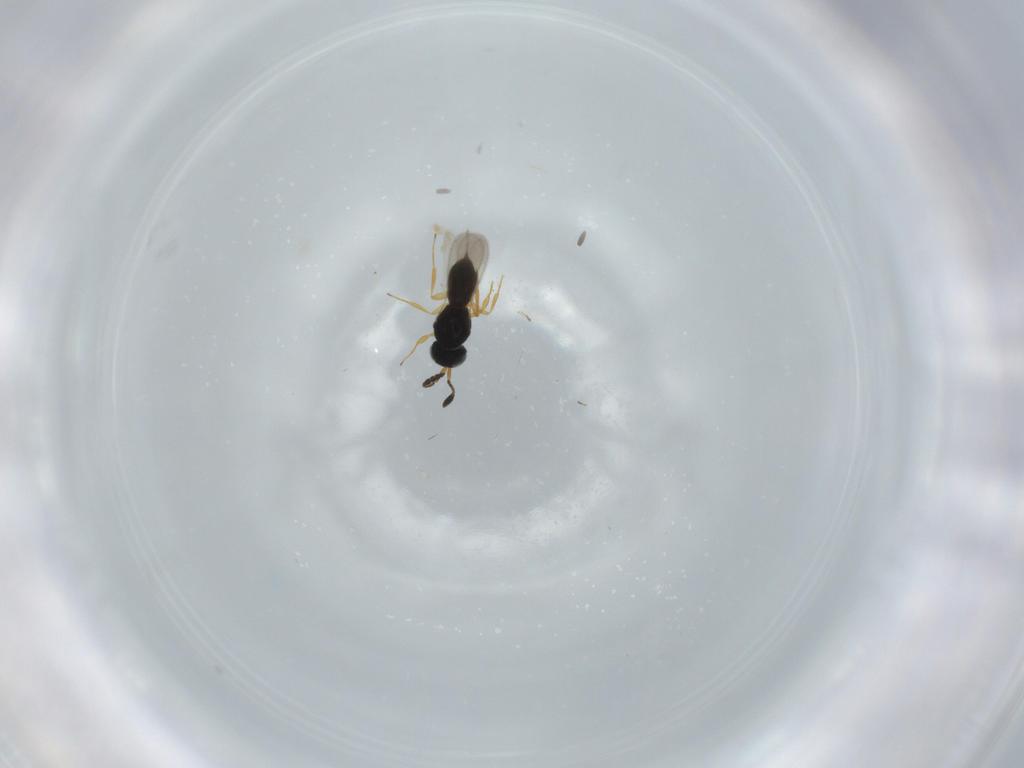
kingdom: Animalia
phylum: Arthropoda
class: Insecta
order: Hymenoptera
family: Scelionidae
